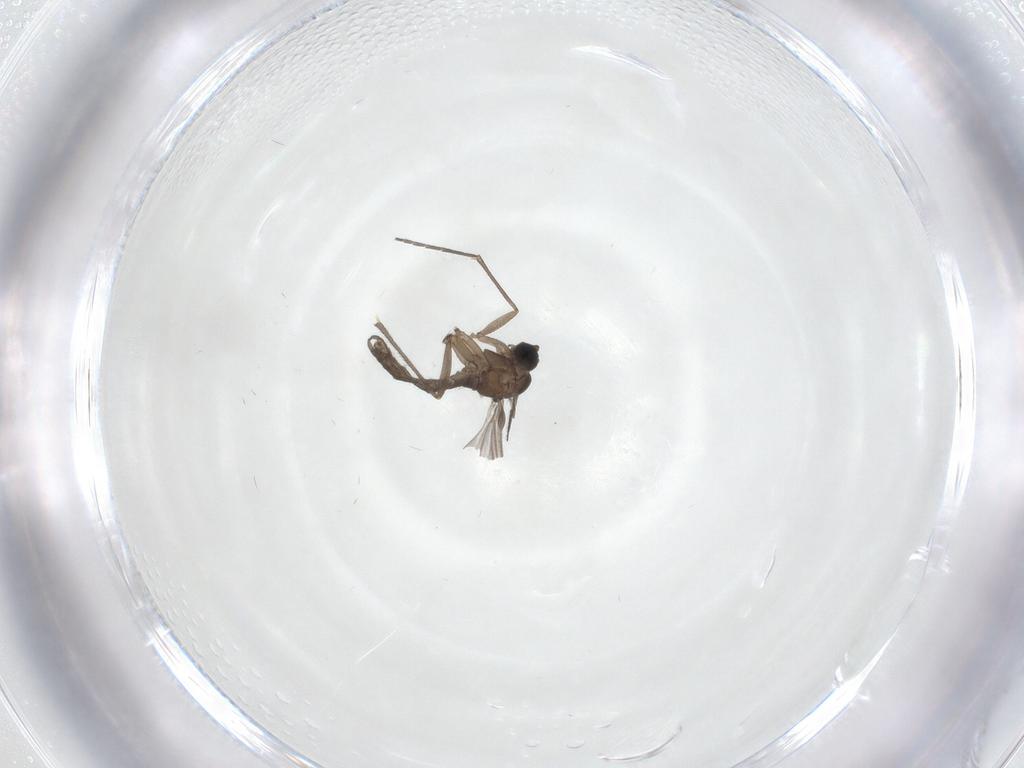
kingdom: Animalia
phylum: Arthropoda
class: Insecta
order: Diptera
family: Sciaridae
